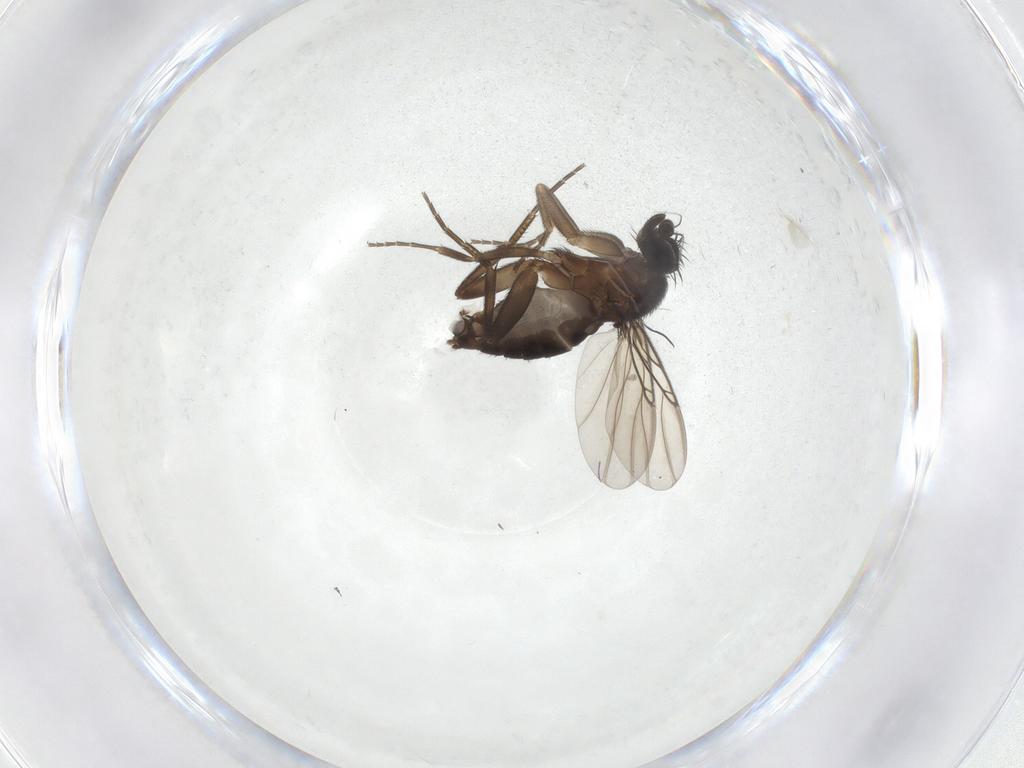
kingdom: Animalia
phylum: Arthropoda
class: Insecta
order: Diptera
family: Phoridae
